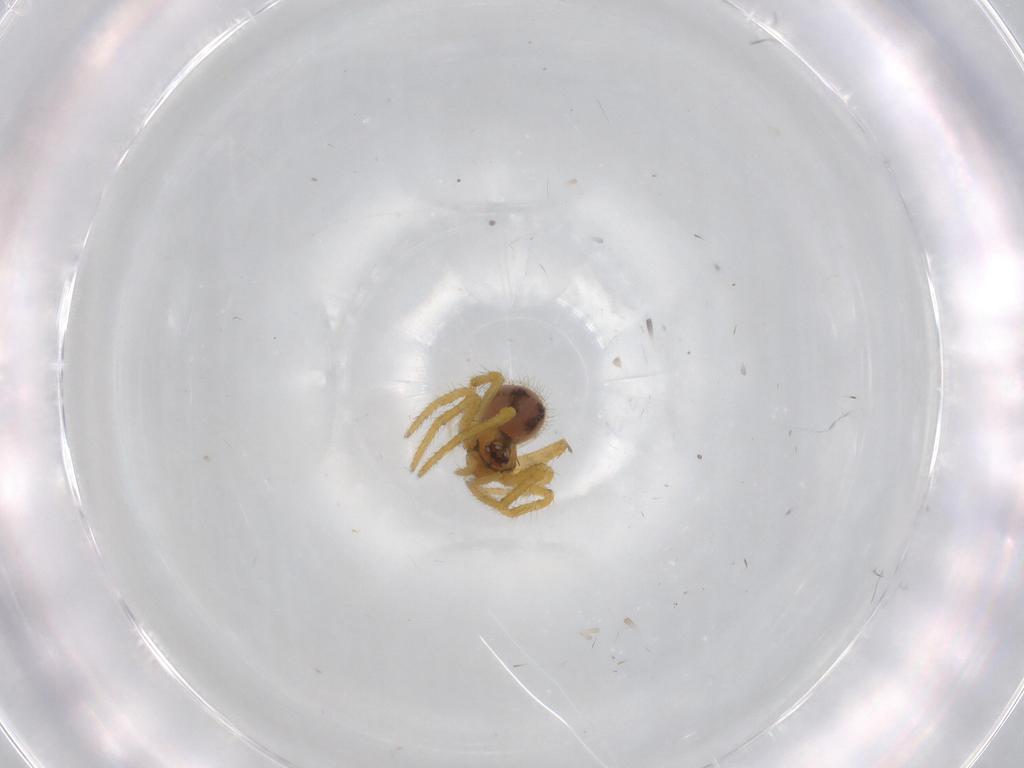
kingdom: Animalia
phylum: Arthropoda
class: Arachnida
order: Araneae
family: Theridiidae
